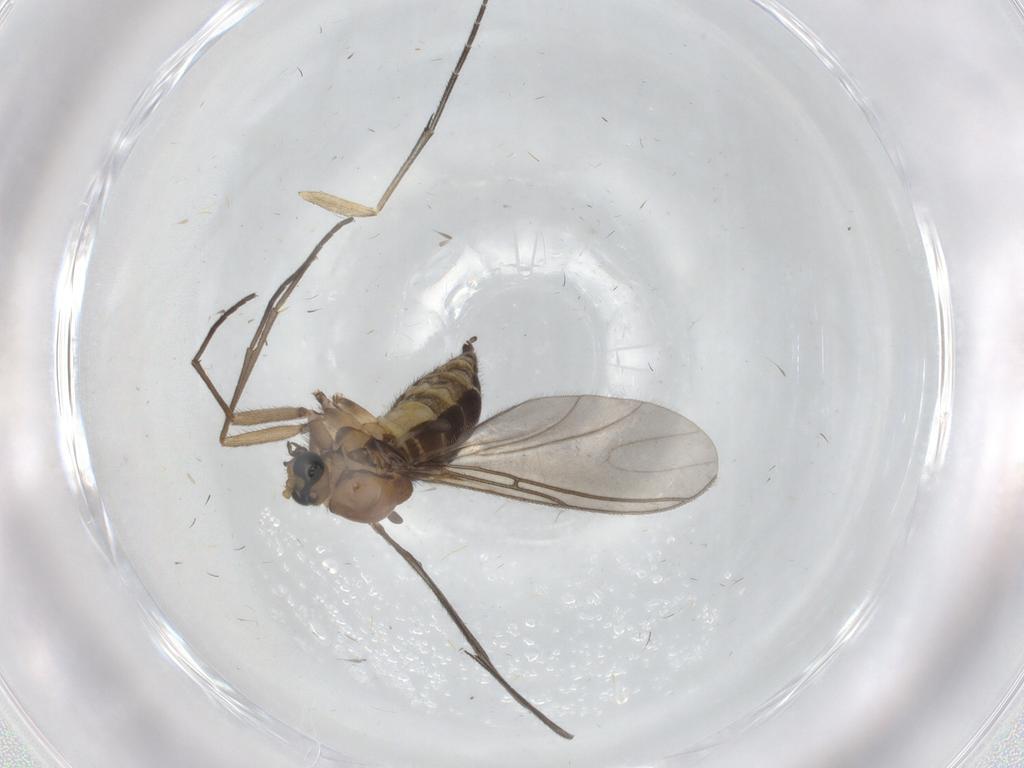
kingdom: Animalia
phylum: Arthropoda
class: Insecta
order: Diptera
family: Sciaridae
